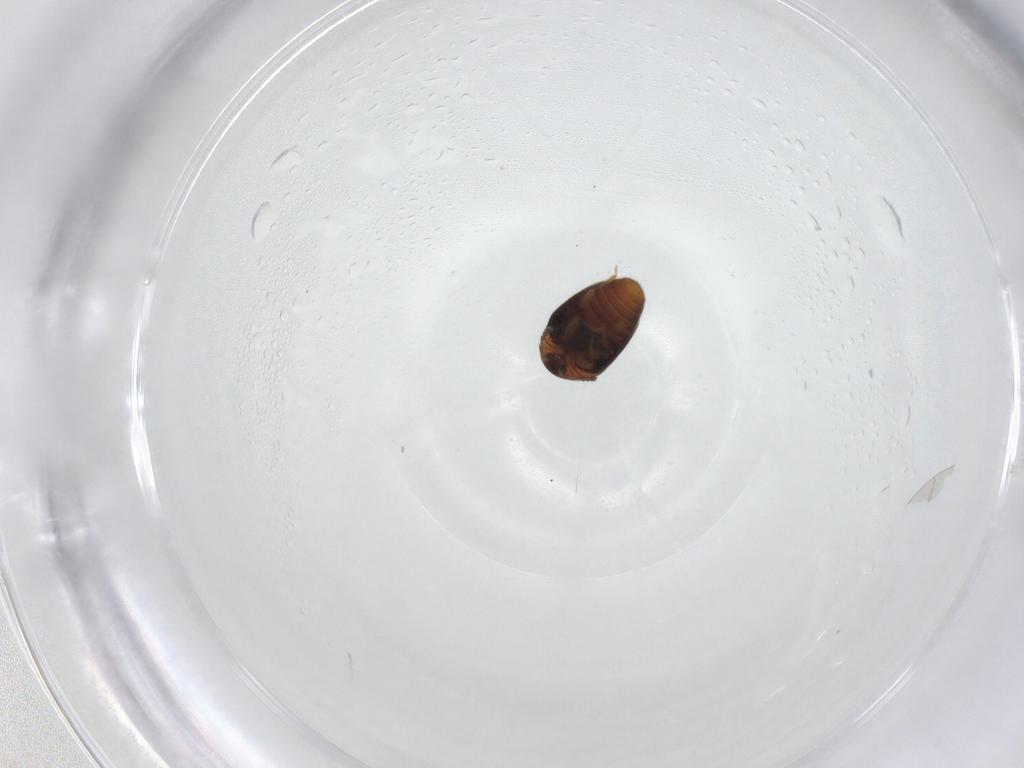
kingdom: Animalia
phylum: Arthropoda
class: Insecta
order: Coleoptera
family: Corylophidae
